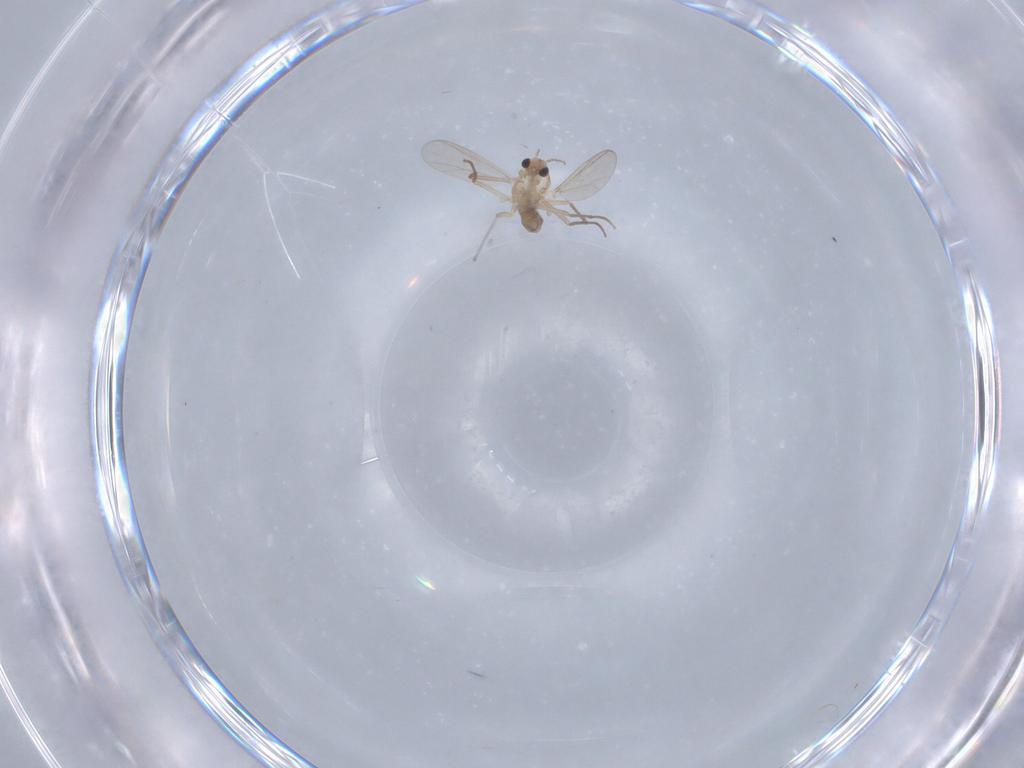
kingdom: Animalia
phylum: Arthropoda
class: Insecta
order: Diptera
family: Chironomidae
